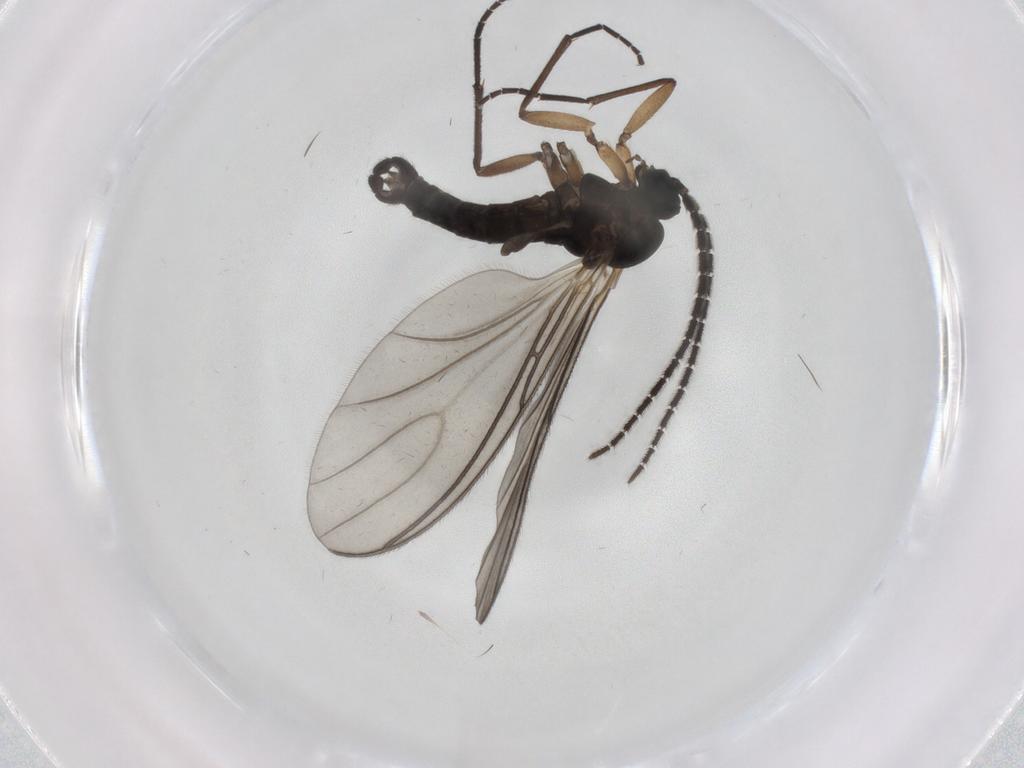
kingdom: Animalia
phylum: Arthropoda
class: Insecta
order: Diptera
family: Sciaridae
